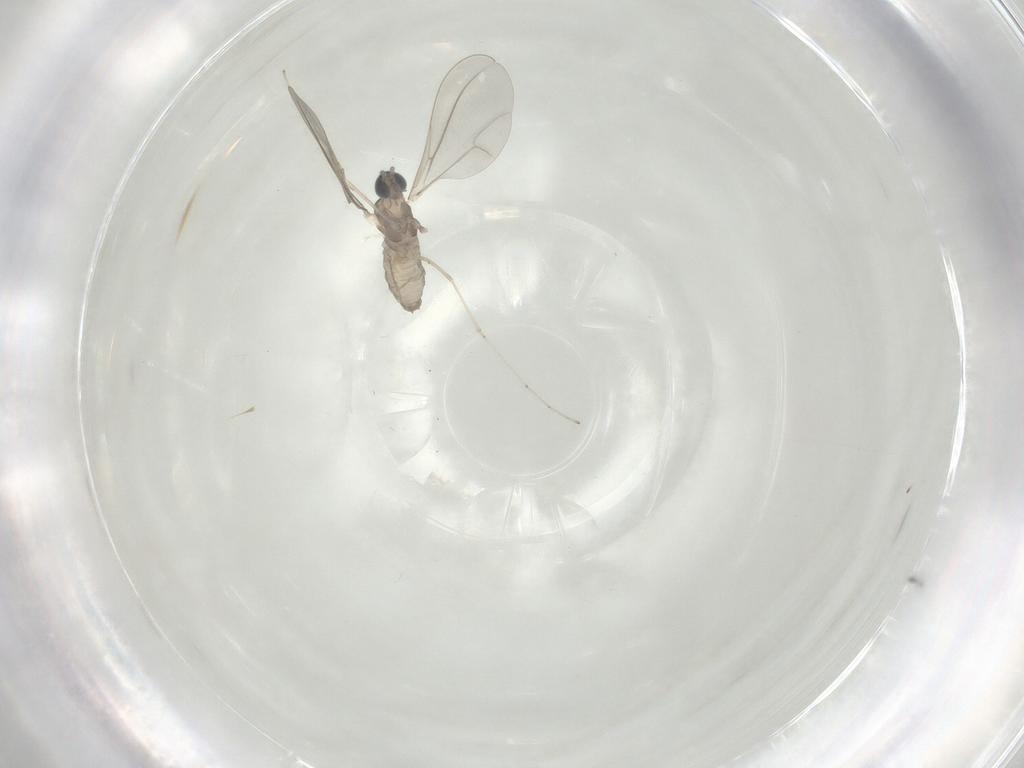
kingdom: Animalia
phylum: Arthropoda
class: Insecta
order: Diptera
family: Cecidomyiidae
